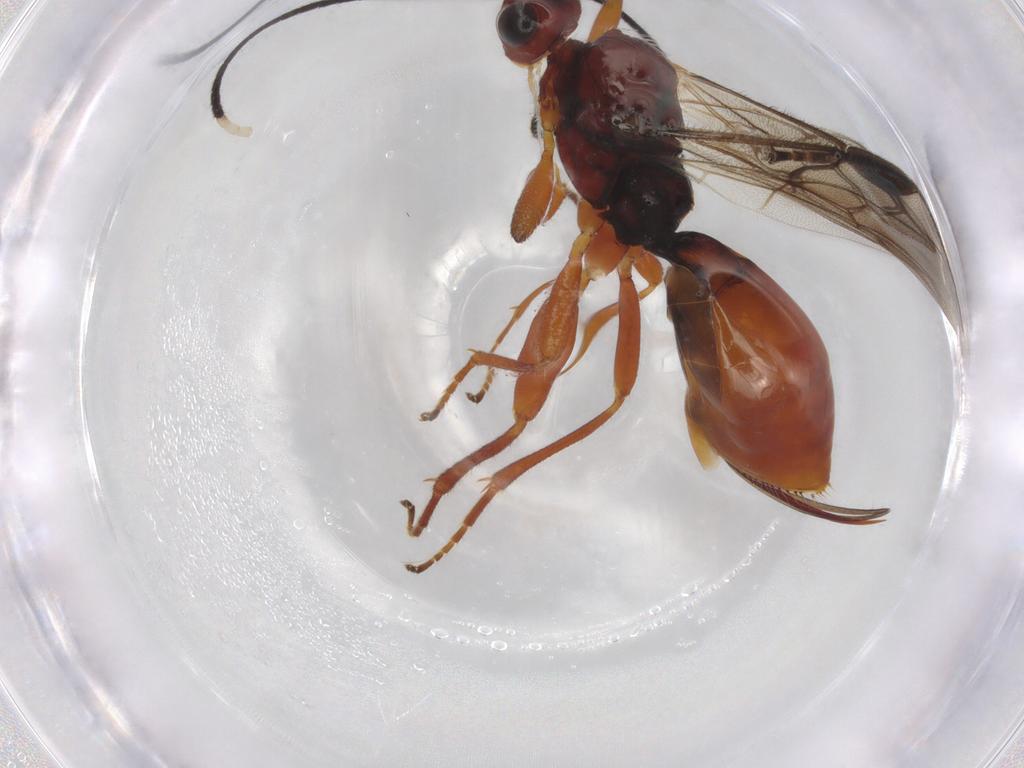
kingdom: Animalia
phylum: Arthropoda
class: Insecta
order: Hymenoptera
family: Braconidae
